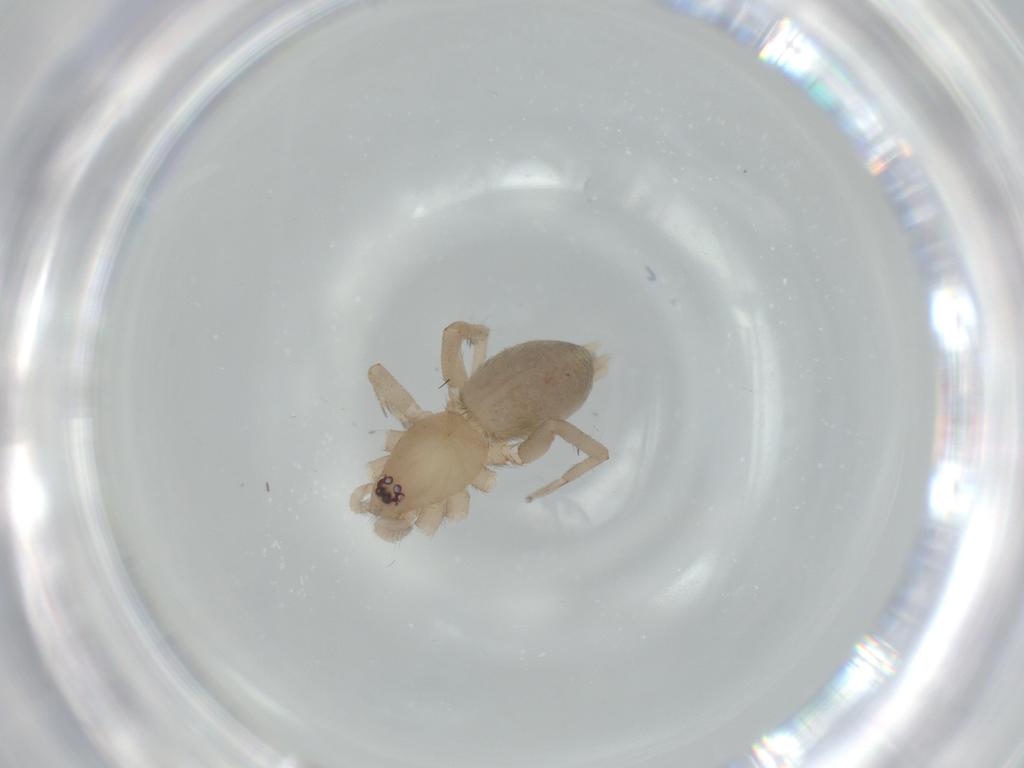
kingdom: Animalia
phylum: Arthropoda
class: Arachnida
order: Araneae
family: Gnaphosidae
